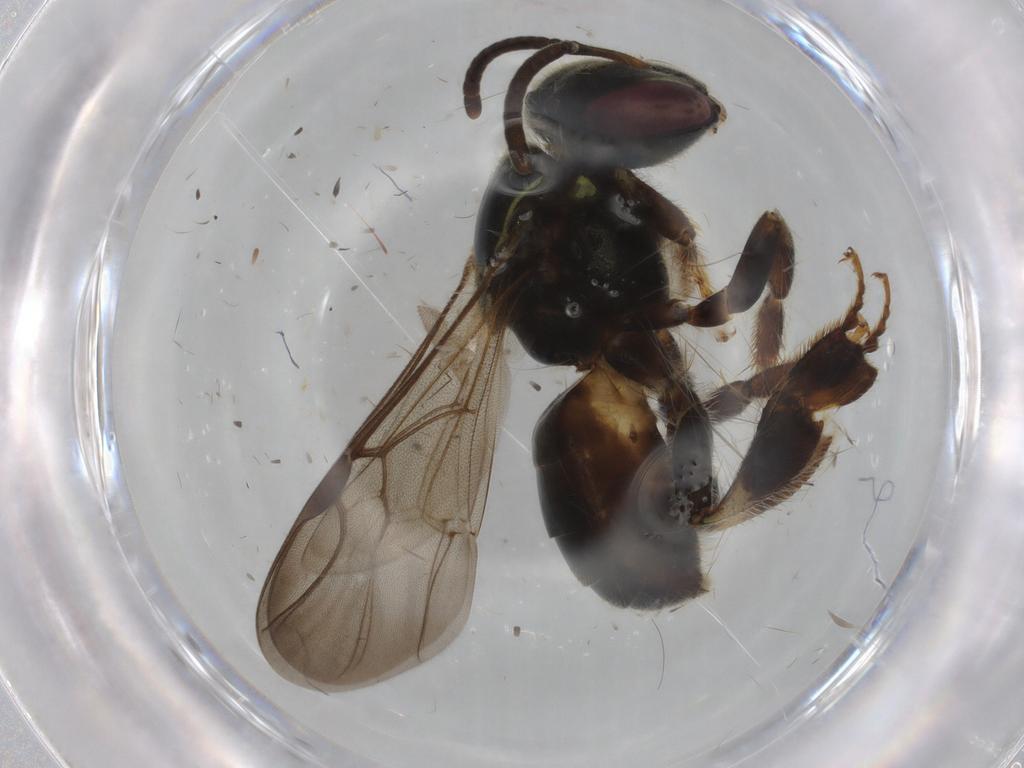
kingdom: Animalia
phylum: Arthropoda
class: Insecta
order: Hymenoptera
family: Apidae
